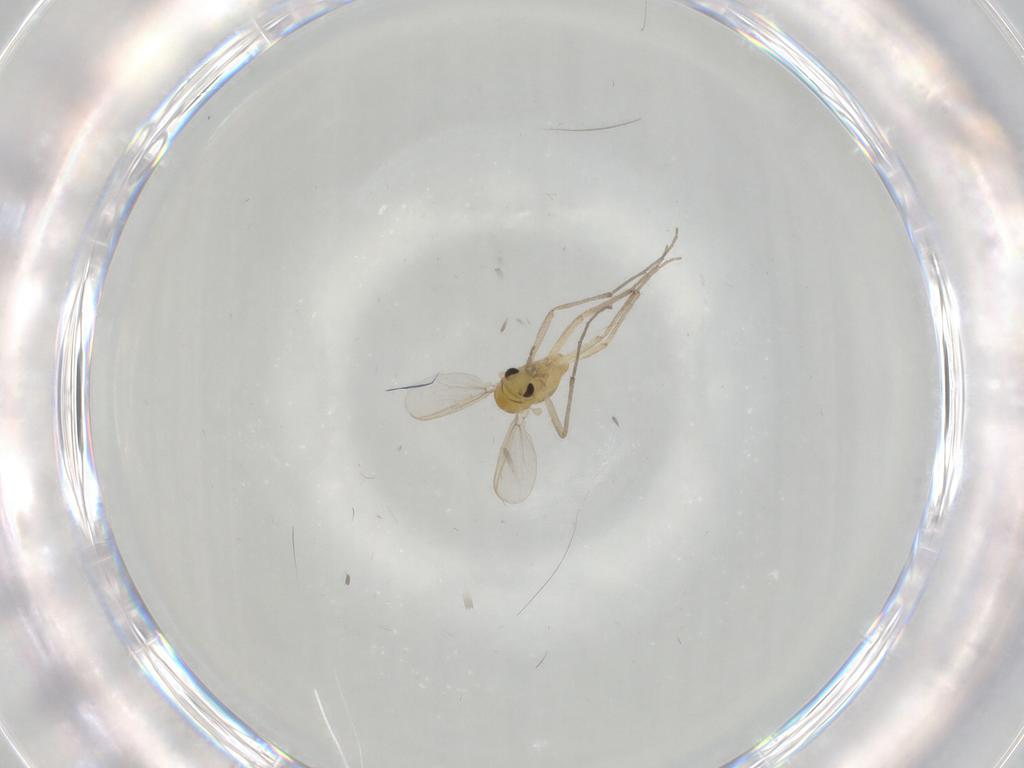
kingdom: Animalia
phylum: Arthropoda
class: Insecta
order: Diptera
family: Chironomidae
